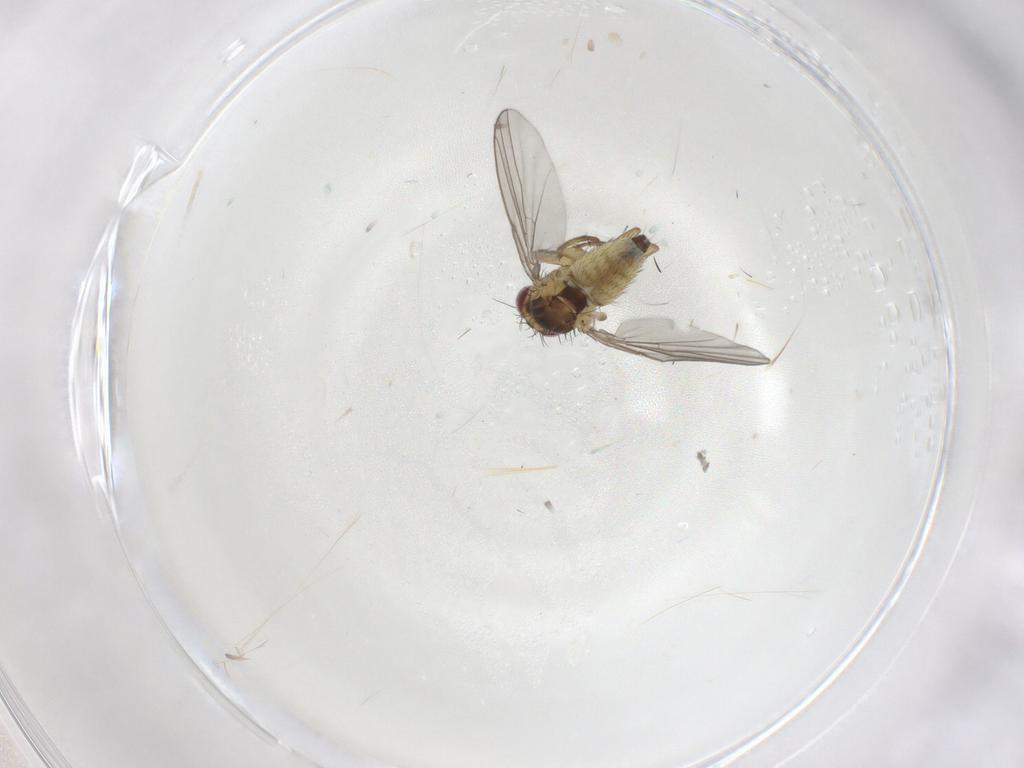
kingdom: Animalia
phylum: Arthropoda
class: Insecta
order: Diptera
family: Agromyzidae
